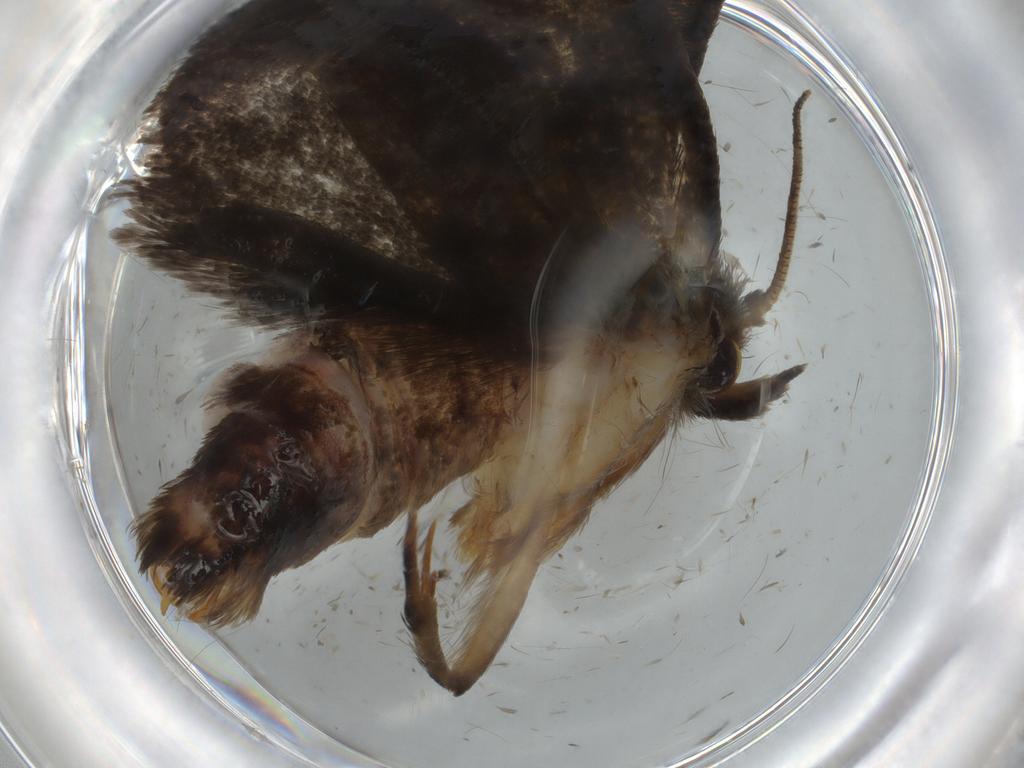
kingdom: Animalia
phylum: Arthropoda
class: Insecta
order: Lepidoptera
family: Tineidae
